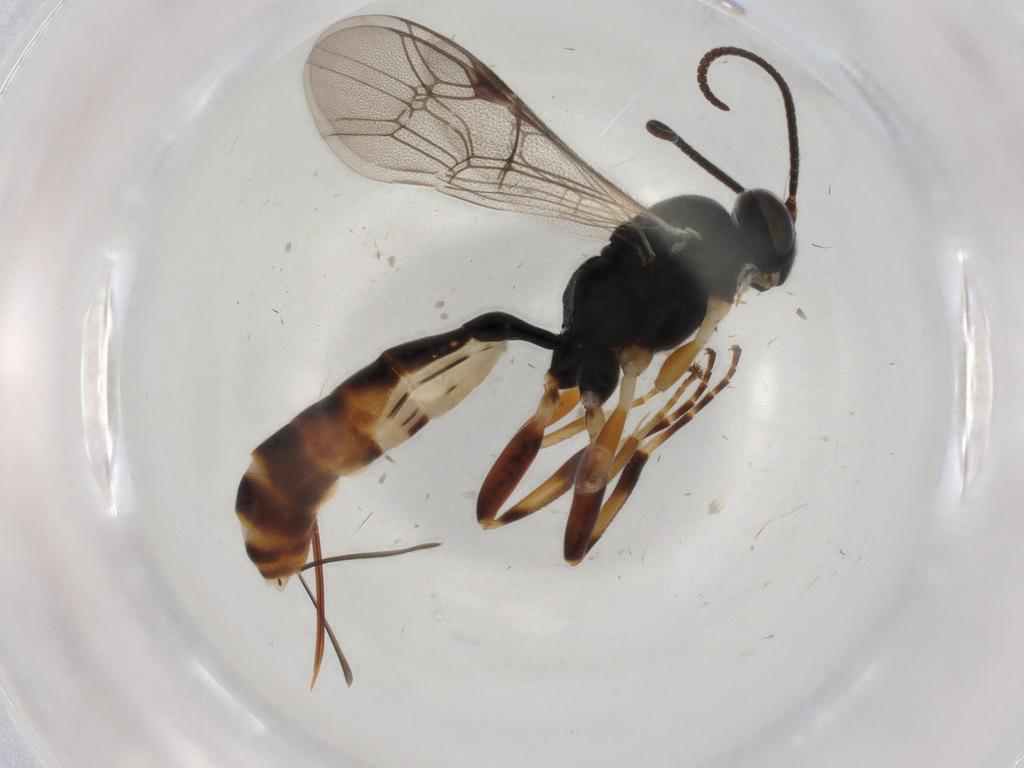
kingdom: Animalia
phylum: Arthropoda
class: Insecta
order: Hymenoptera
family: Ichneumonidae
